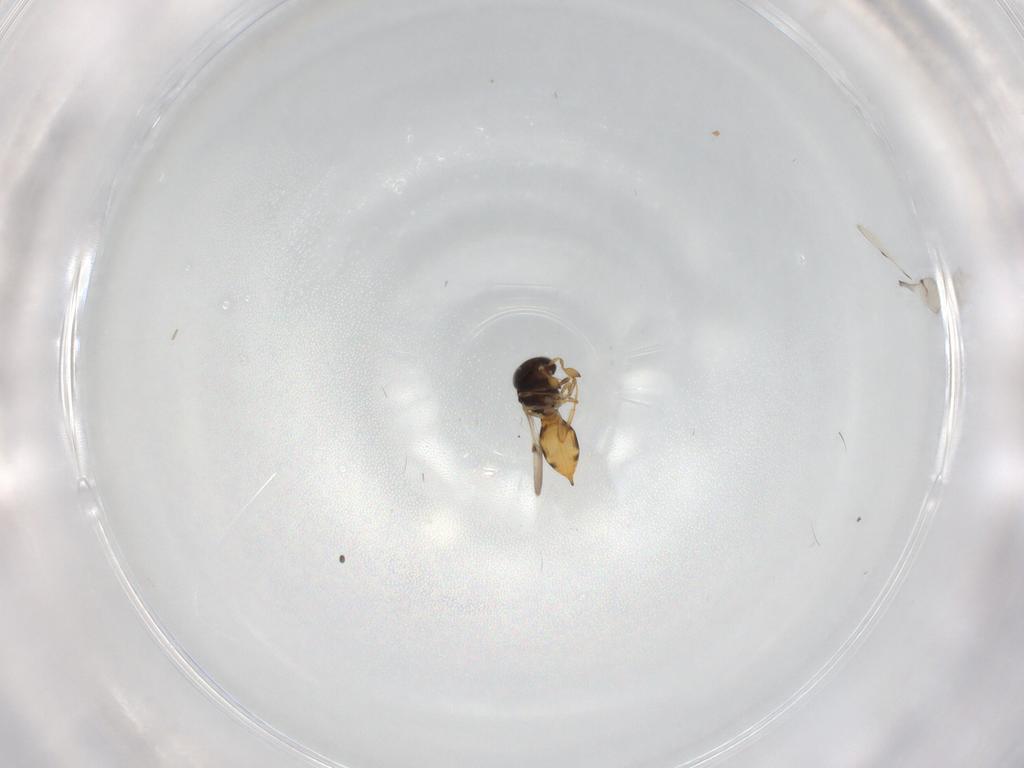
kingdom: Animalia
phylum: Arthropoda
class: Insecta
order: Hymenoptera
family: Scelionidae
